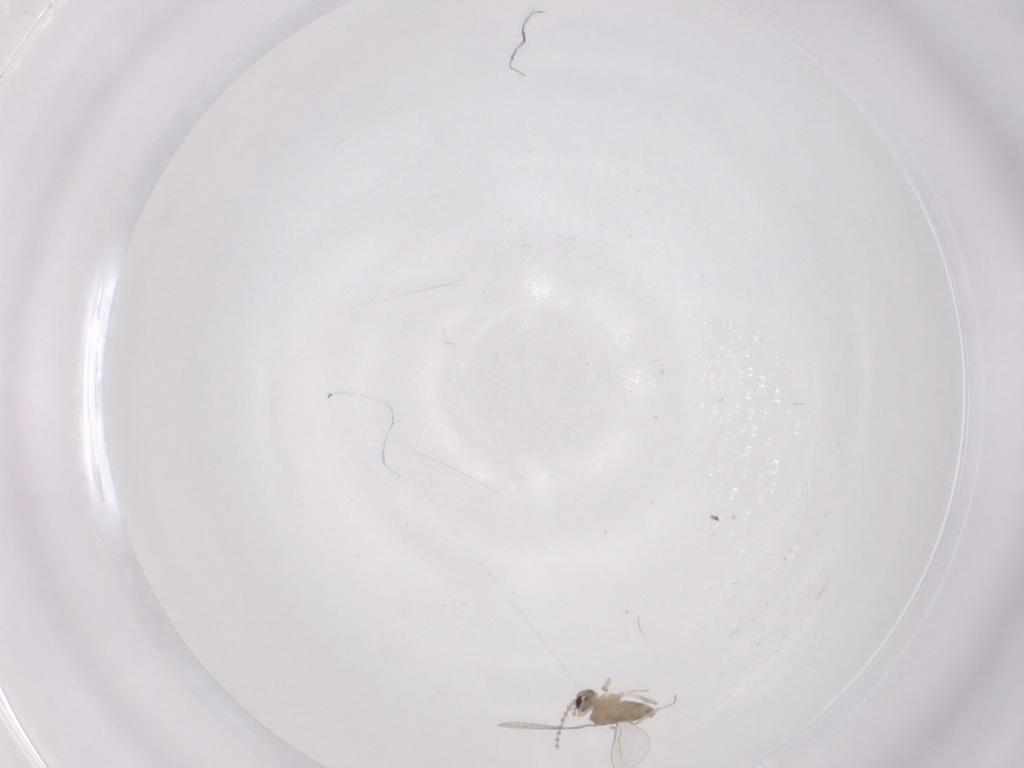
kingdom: Animalia
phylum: Arthropoda
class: Insecta
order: Diptera
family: Cecidomyiidae
